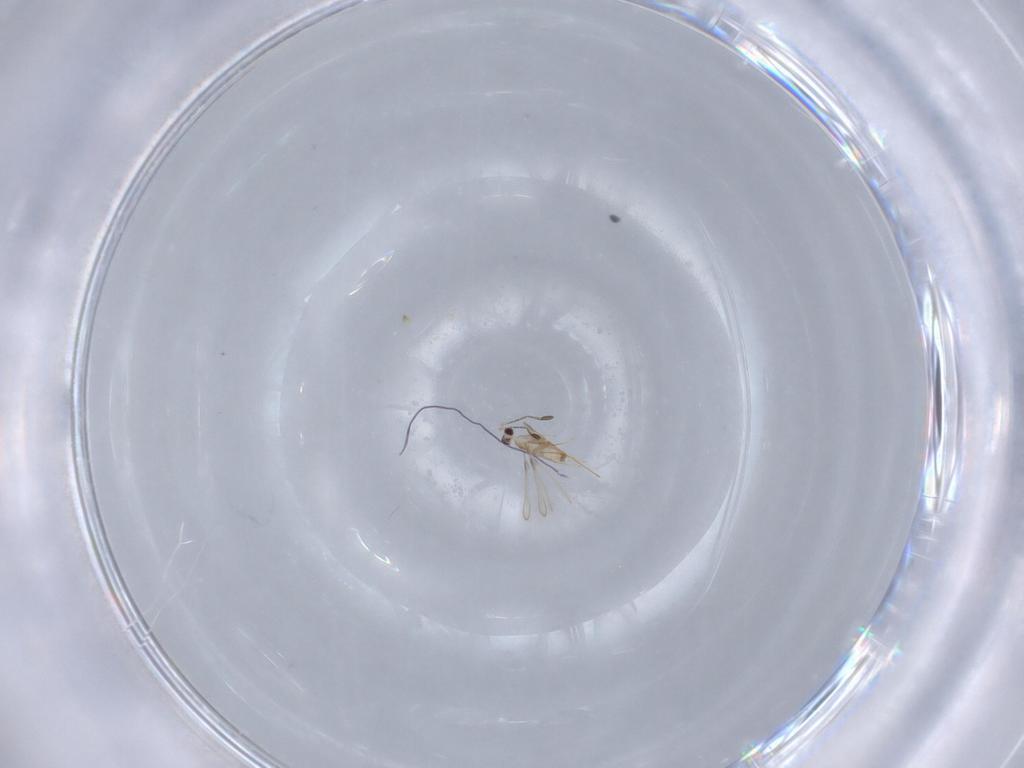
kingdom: Animalia
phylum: Arthropoda
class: Insecta
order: Hymenoptera
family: Mymaridae
